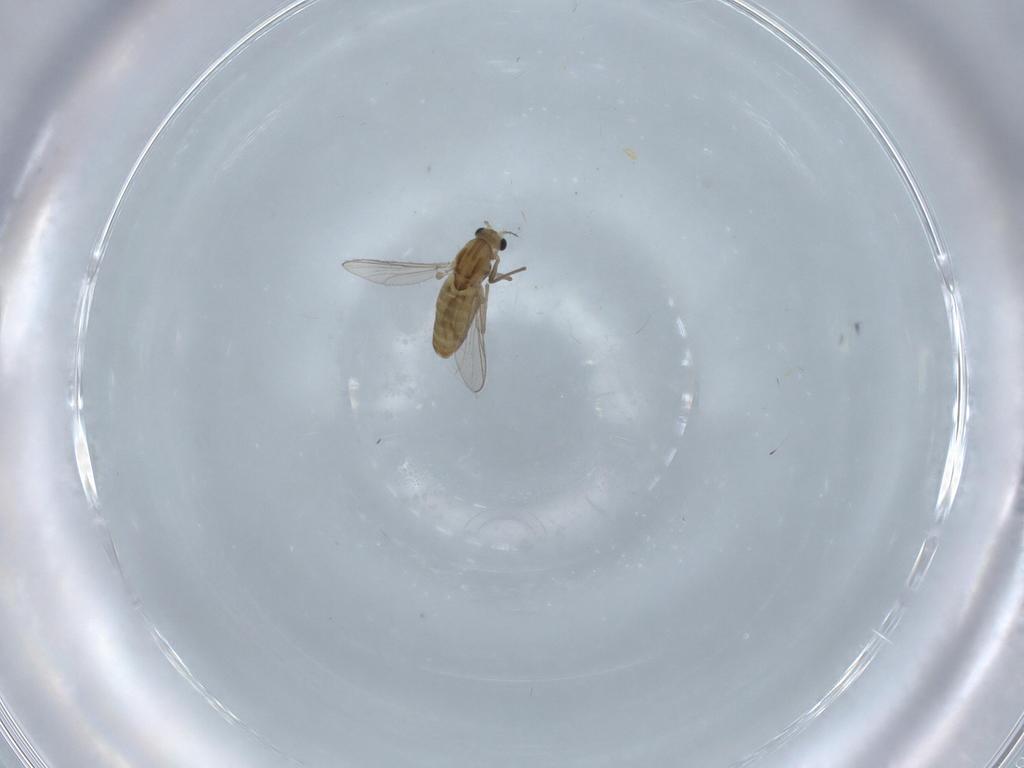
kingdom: Animalia
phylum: Arthropoda
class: Insecta
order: Diptera
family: Cecidomyiidae
